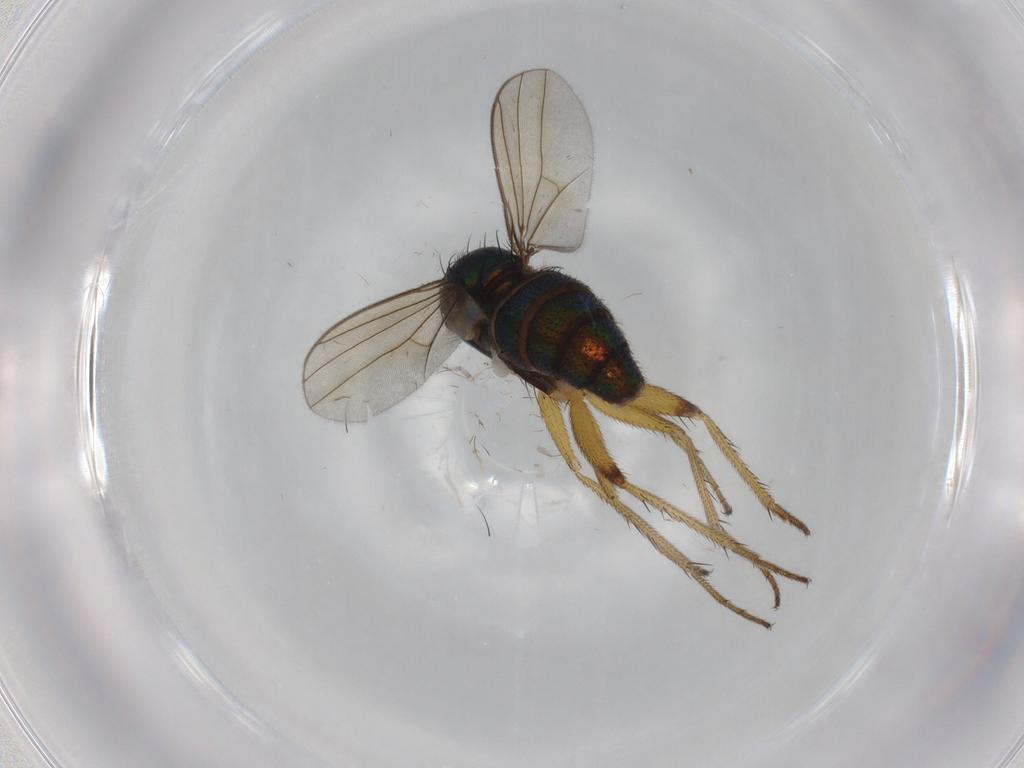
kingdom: Animalia
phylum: Arthropoda
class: Insecta
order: Diptera
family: Dolichopodidae
